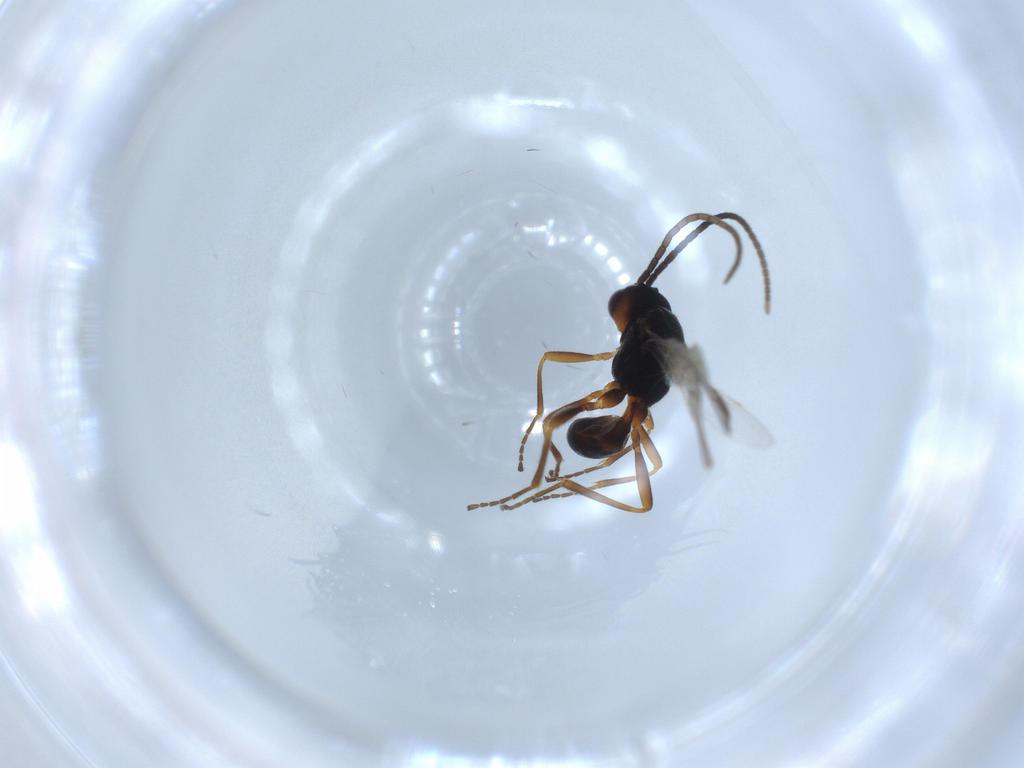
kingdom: Animalia
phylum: Arthropoda
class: Insecta
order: Hymenoptera
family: Braconidae
